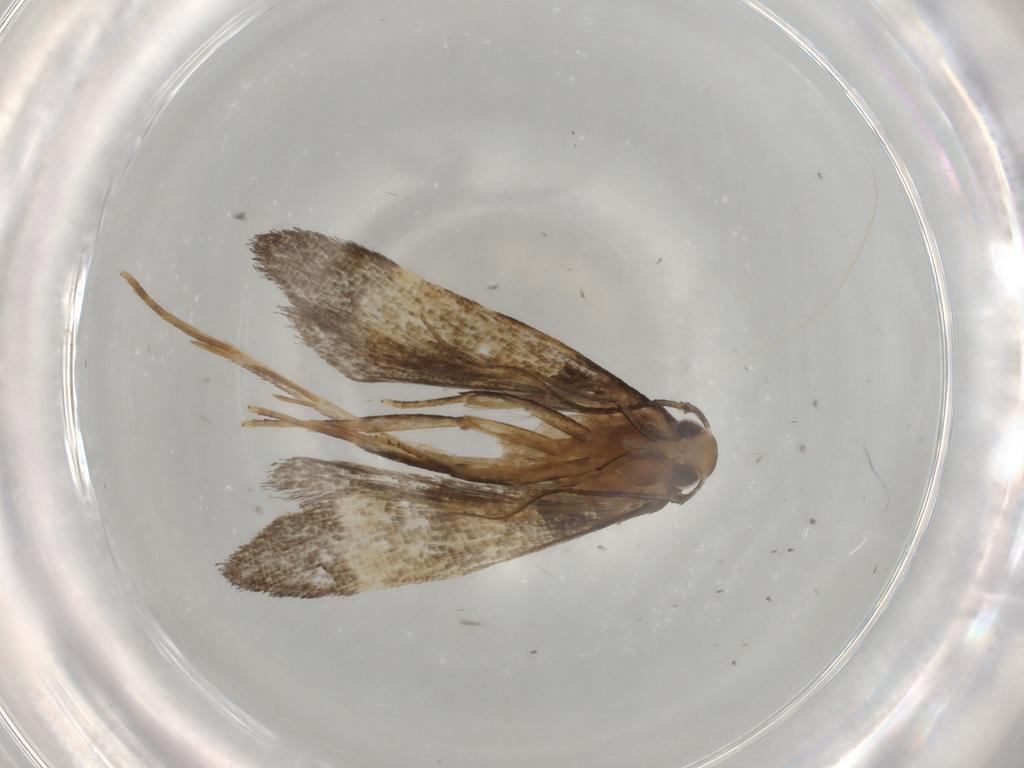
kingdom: Animalia
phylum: Arthropoda
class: Insecta
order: Lepidoptera
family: Cosmopterigidae
